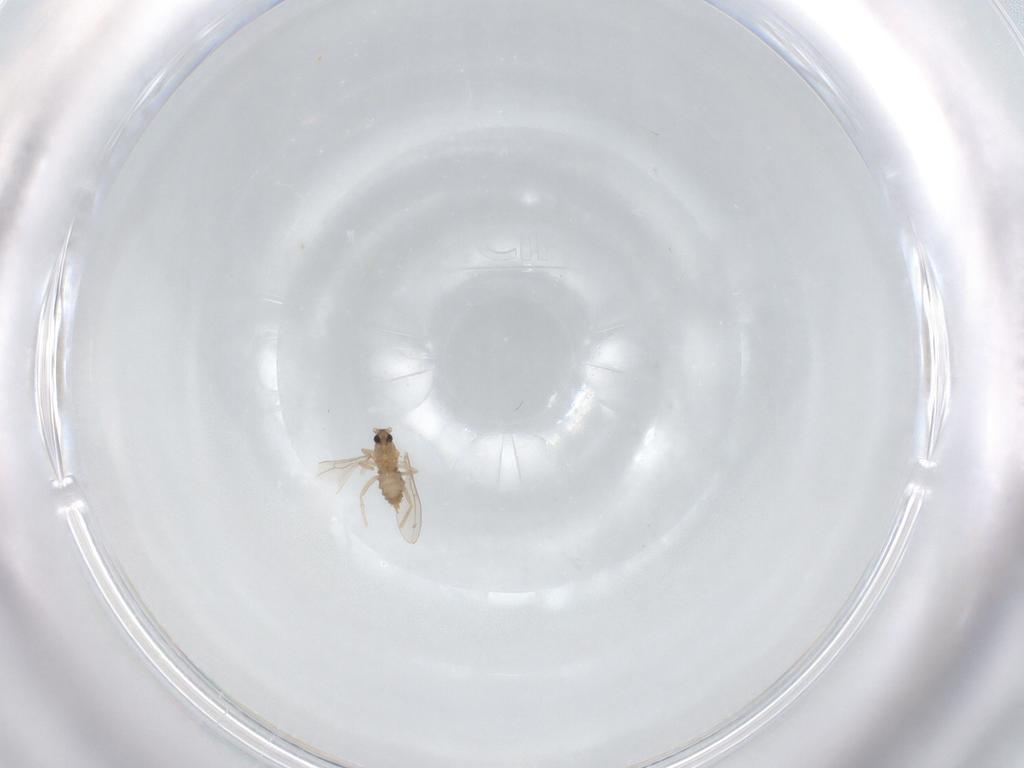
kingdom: Animalia
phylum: Arthropoda
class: Insecta
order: Diptera
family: Cecidomyiidae
